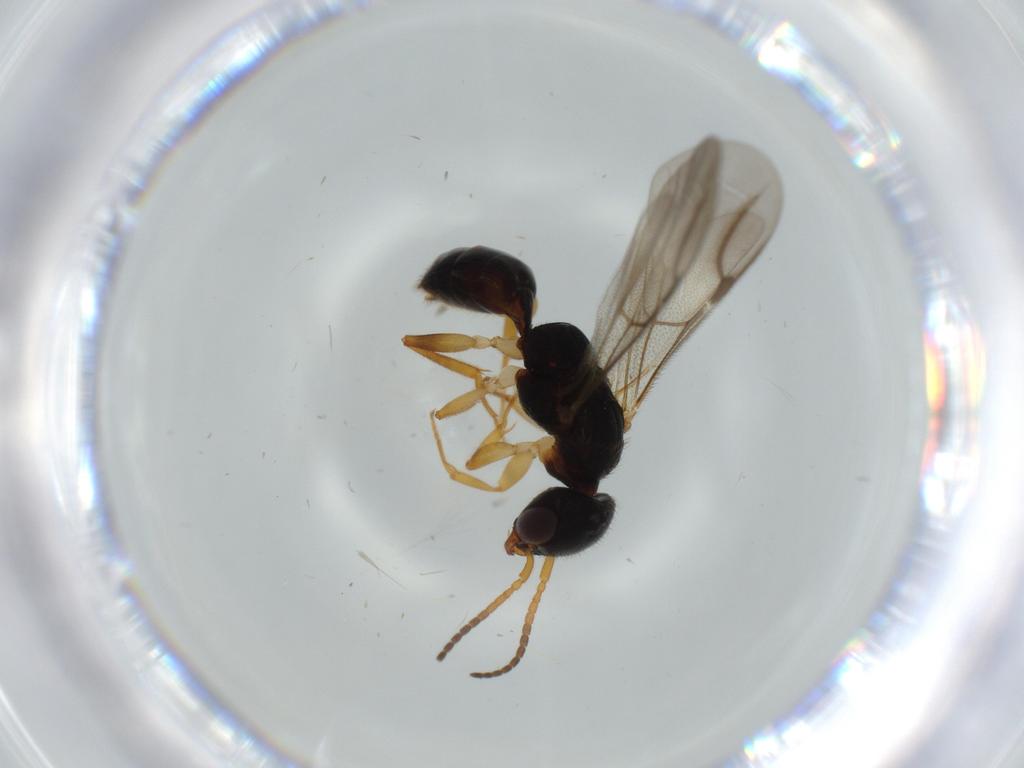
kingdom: Animalia
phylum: Arthropoda
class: Insecta
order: Hymenoptera
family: Bethylidae
